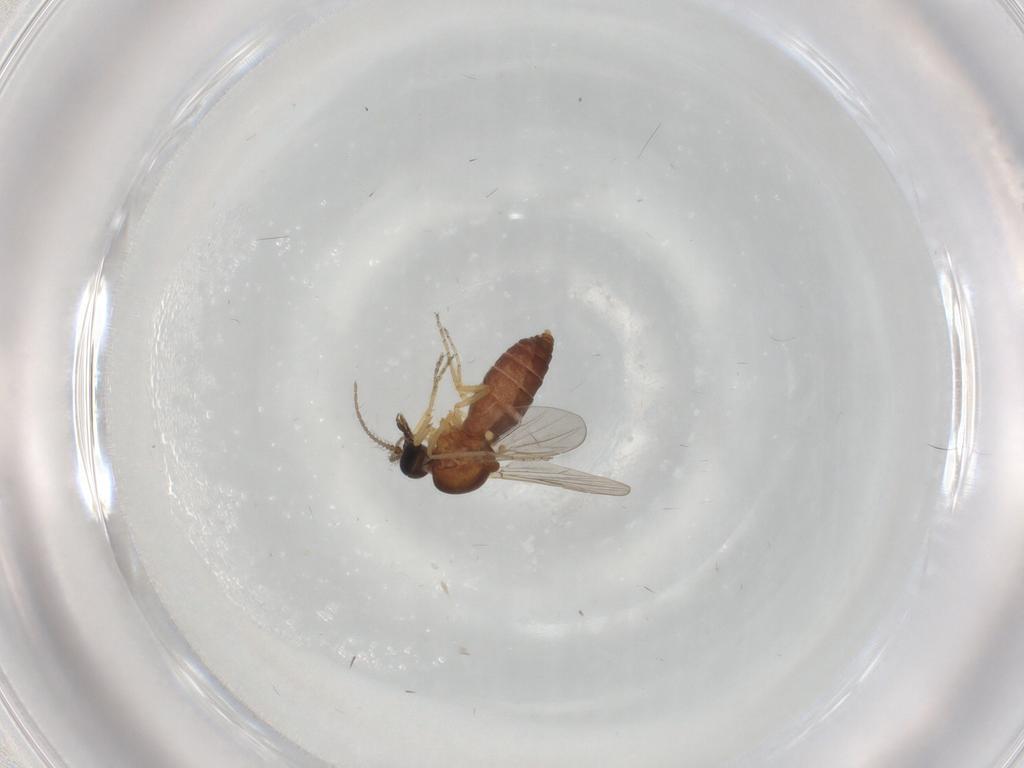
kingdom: Animalia
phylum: Arthropoda
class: Insecta
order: Diptera
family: Ceratopogonidae
